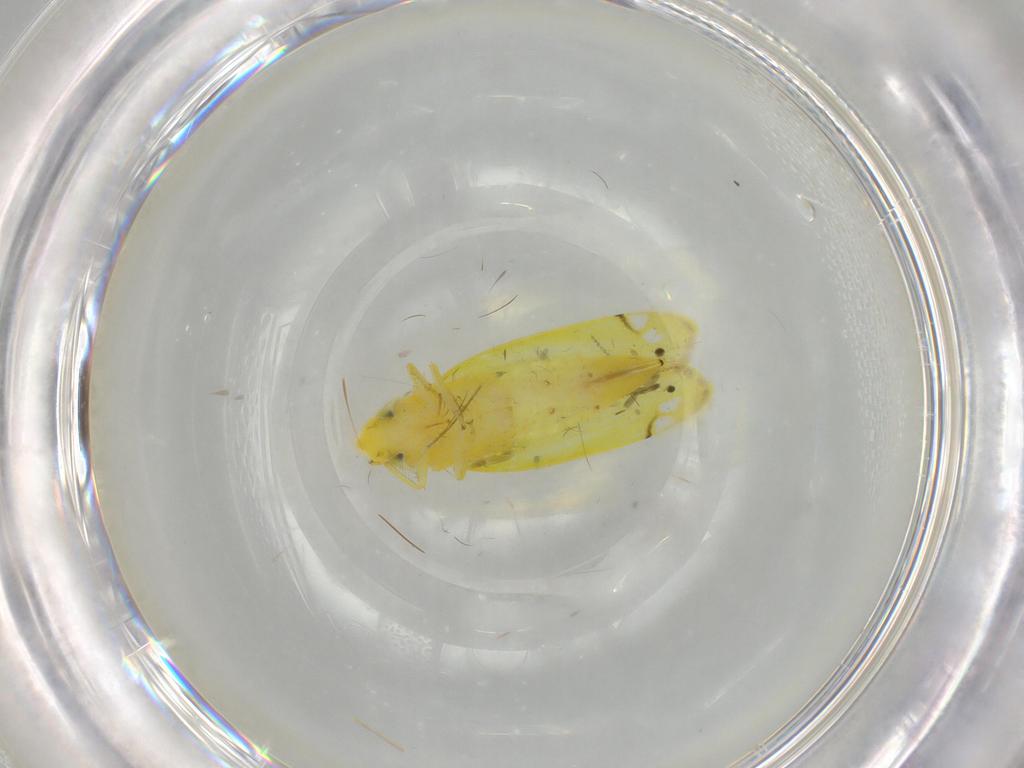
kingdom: Animalia
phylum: Arthropoda
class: Insecta
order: Hemiptera
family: Cicadellidae
